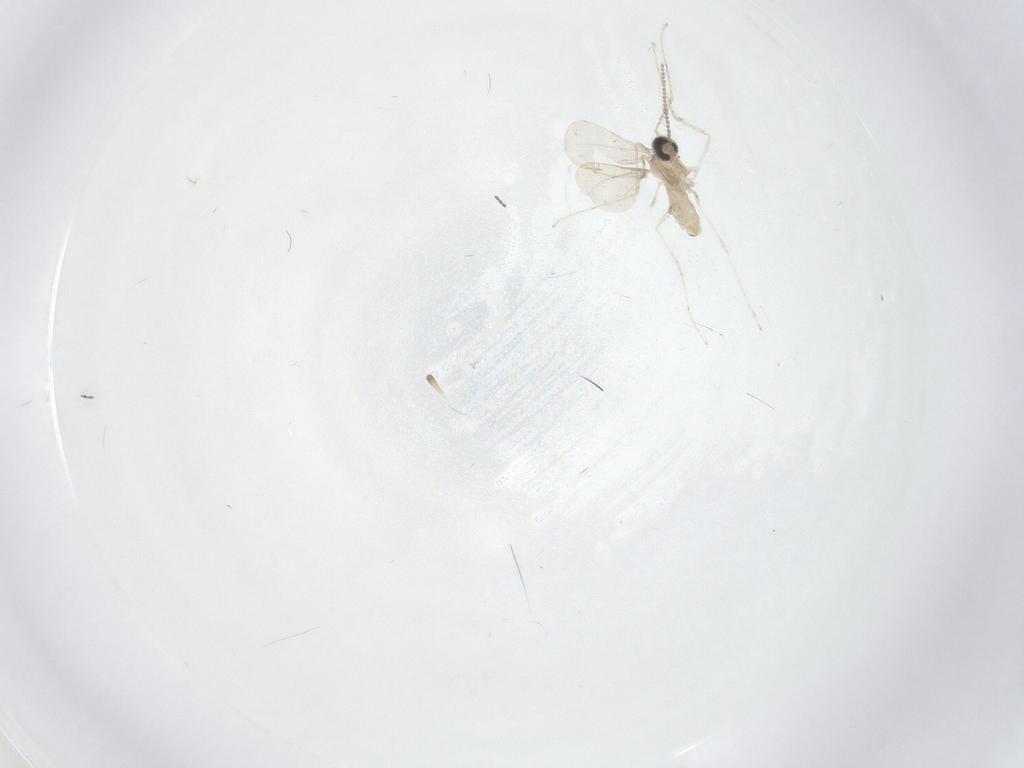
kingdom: Animalia
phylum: Arthropoda
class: Insecta
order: Diptera
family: Cecidomyiidae
